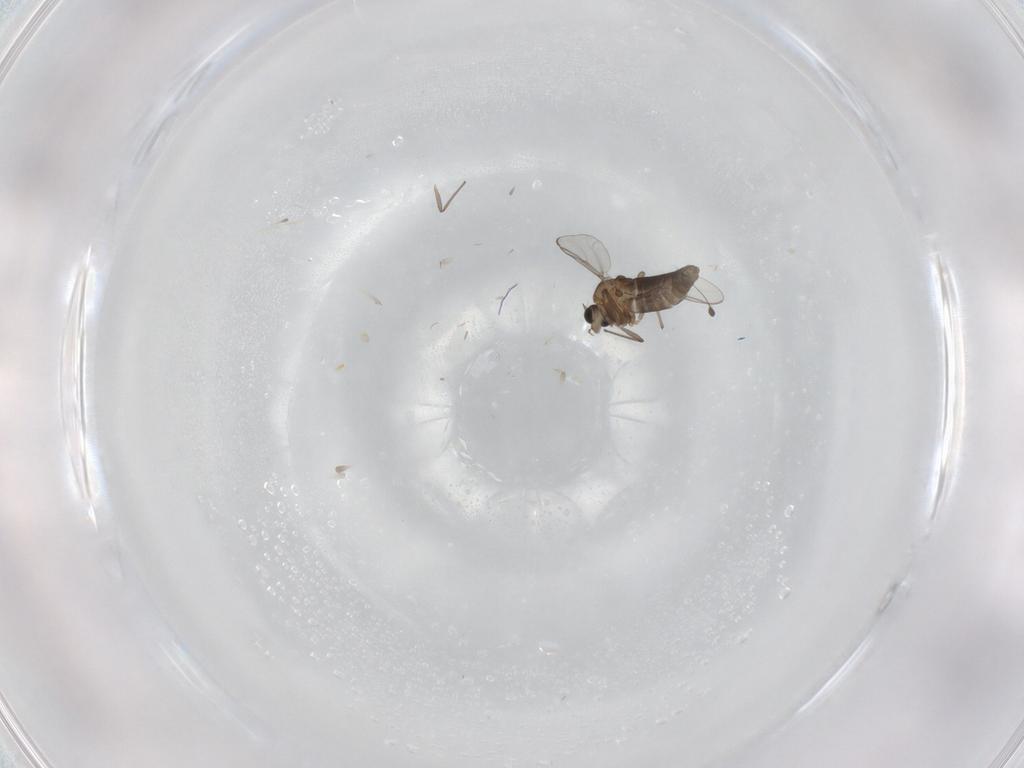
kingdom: Animalia
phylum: Arthropoda
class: Insecta
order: Diptera
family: Chironomidae
